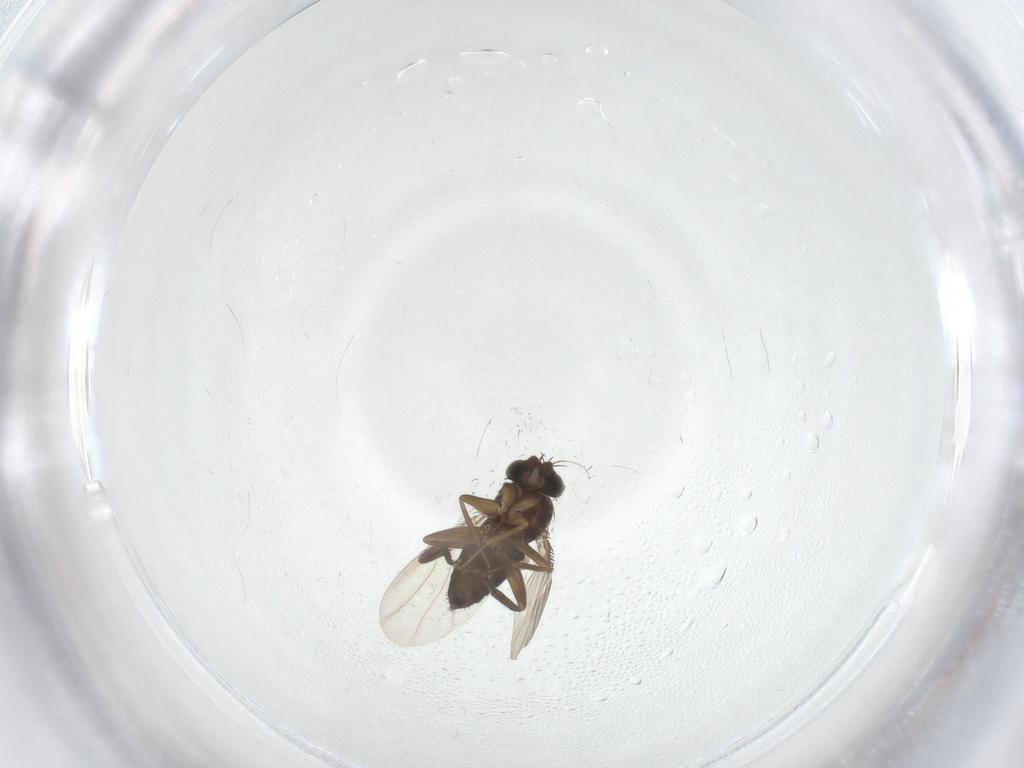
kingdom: Animalia
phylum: Arthropoda
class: Insecta
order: Diptera
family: Phoridae
